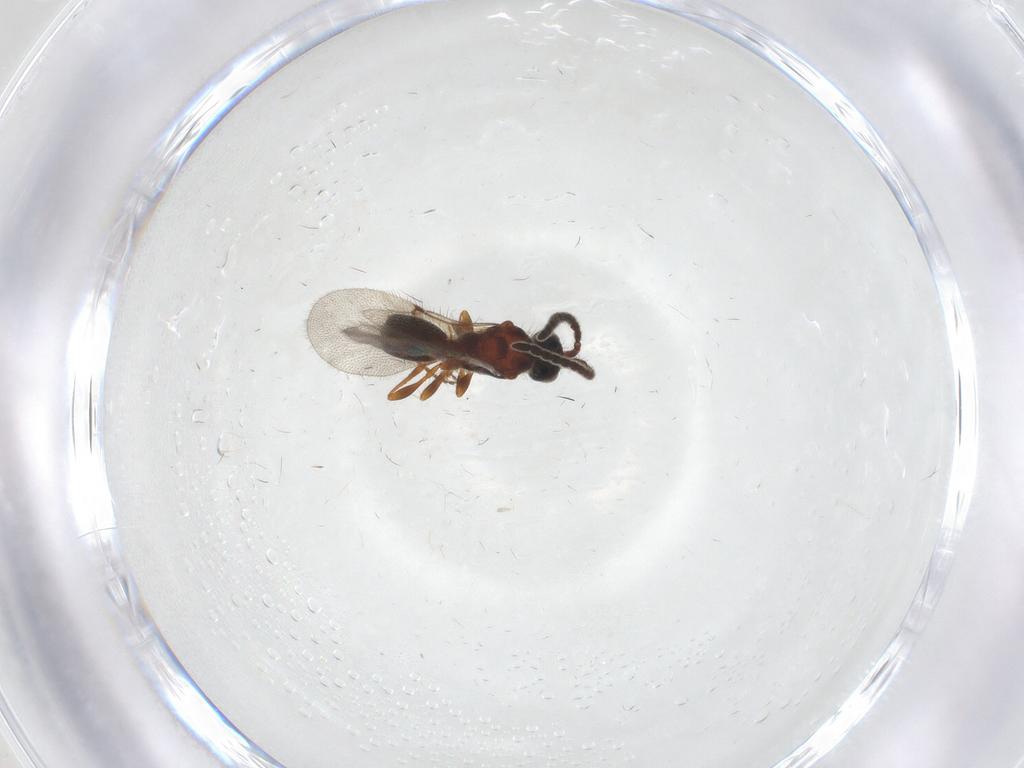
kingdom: Animalia
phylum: Arthropoda
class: Insecta
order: Hymenoptera
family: Diapriidae
